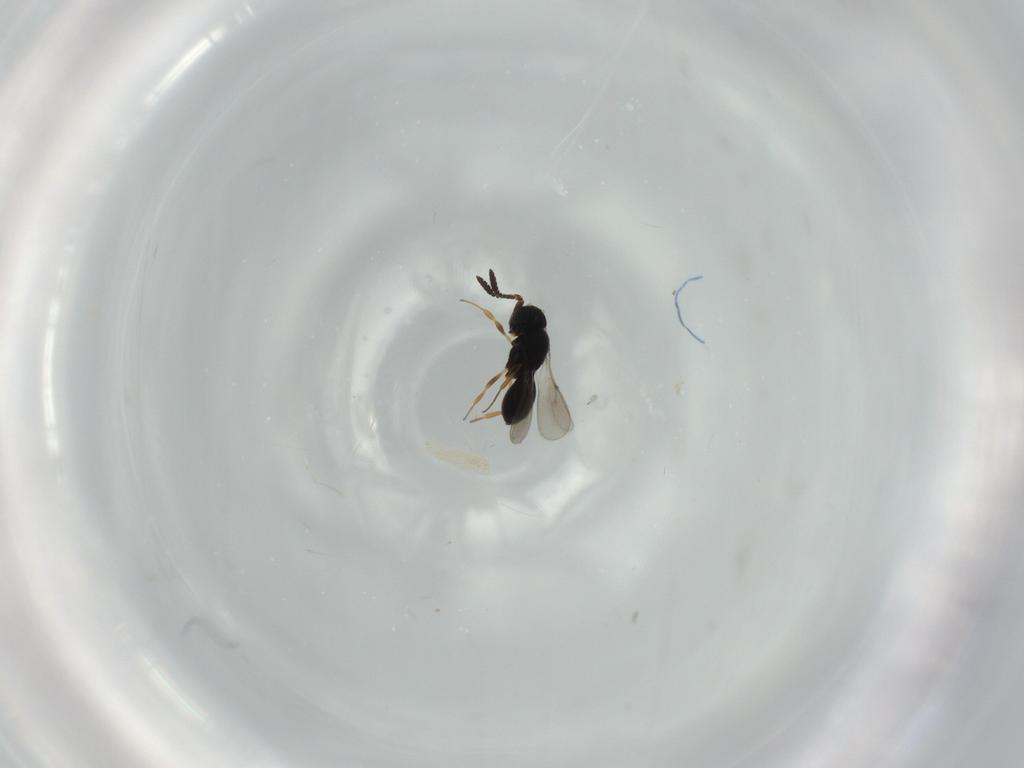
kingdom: Animalia
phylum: Arthropoda
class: Insecta
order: Hymenoptera
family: Scelionidae
